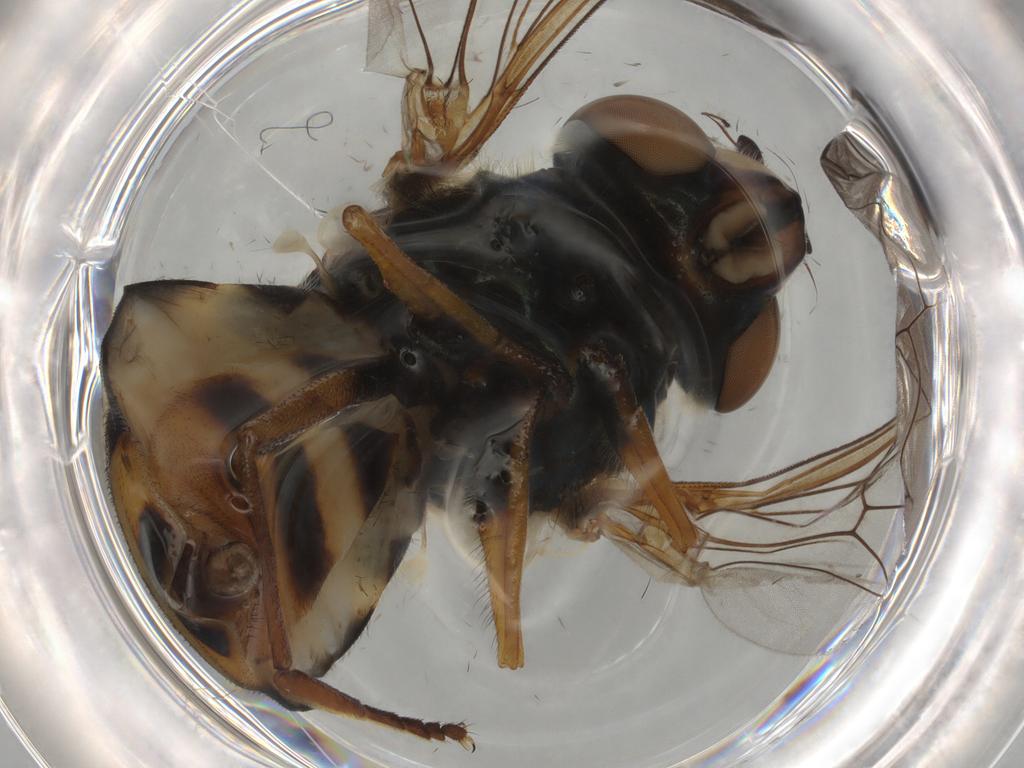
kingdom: Animalia
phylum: Arthropoda
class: Insecta
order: Diptera
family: Syrphidae
